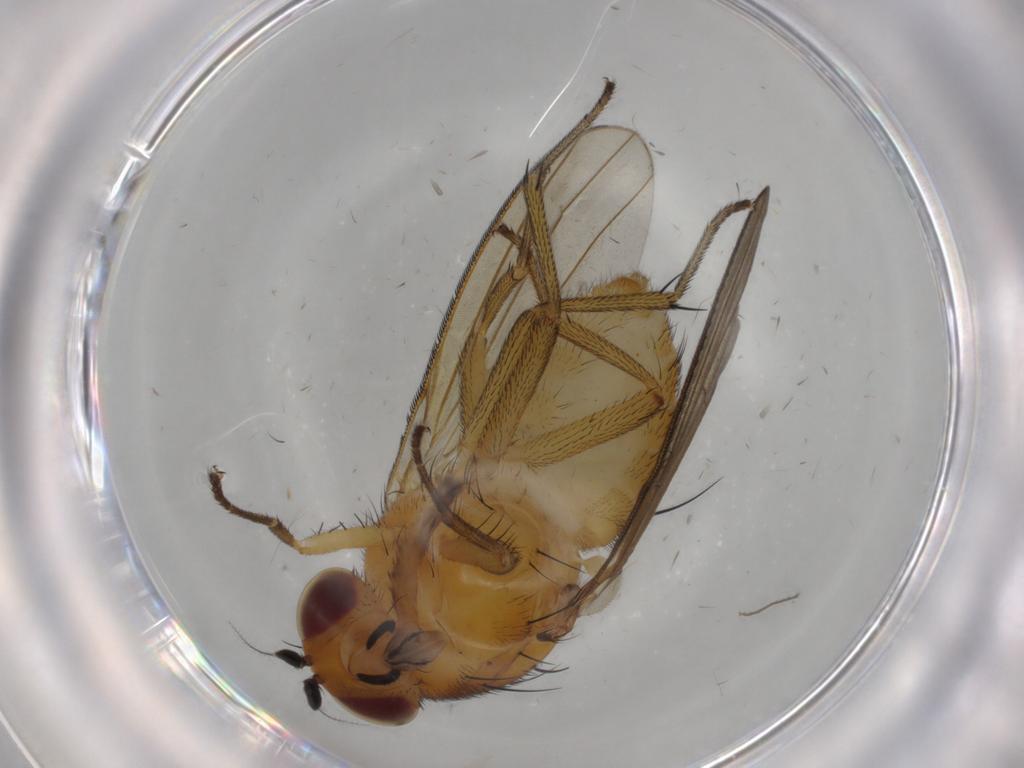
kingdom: Animalia
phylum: Arthropoda
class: Insecta
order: Diptera
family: Lauxaniidae
